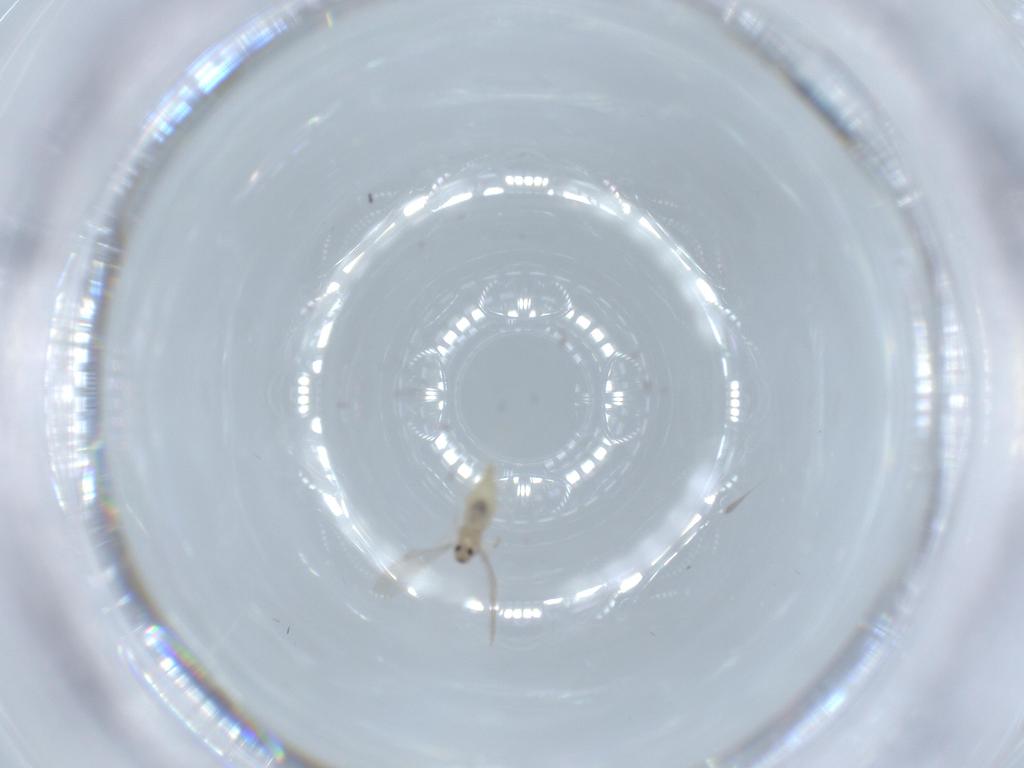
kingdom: Animalia
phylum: Arthropoda
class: Insecta
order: Diptera
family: Cecidomyiidae
